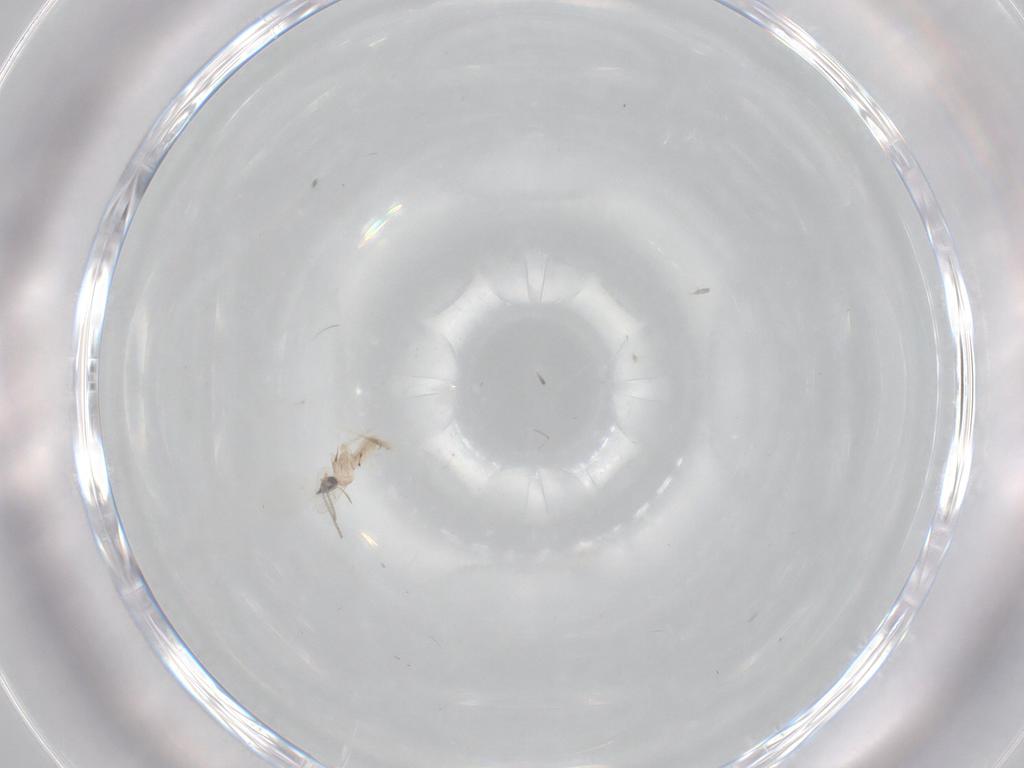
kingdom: Animalia
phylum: Arthropoda
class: Insecta
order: Diptera
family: Cecidomyiidae
